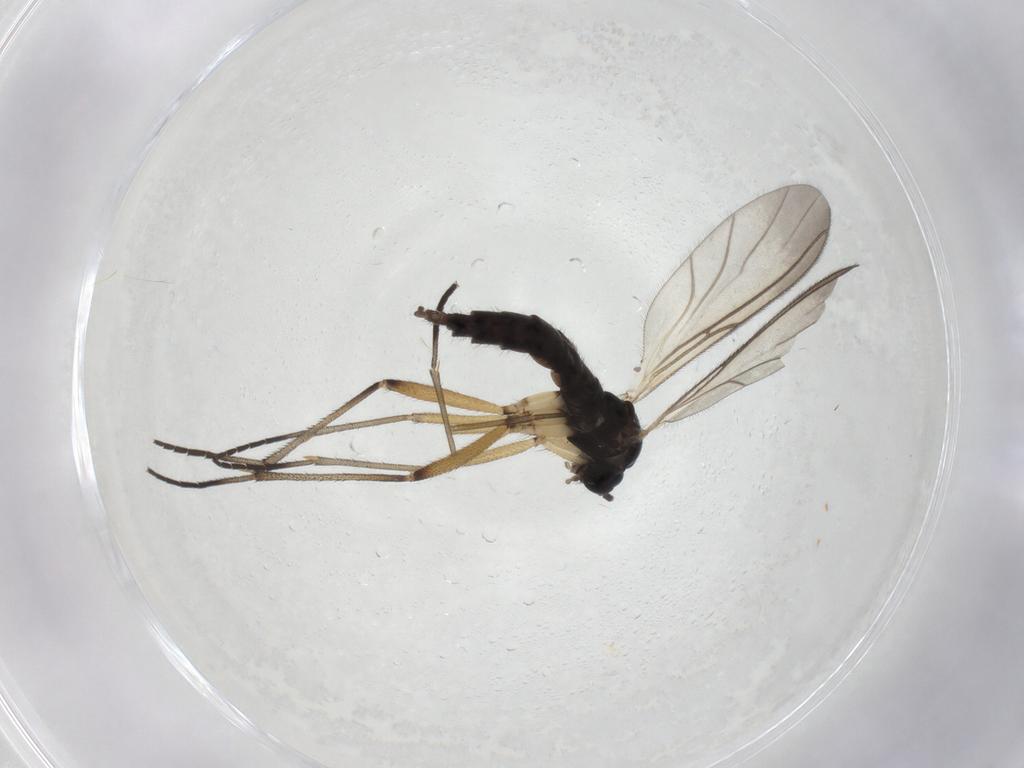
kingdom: Animalia
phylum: Arthropoda
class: Insecta
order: Diptera
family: Sciaridae
